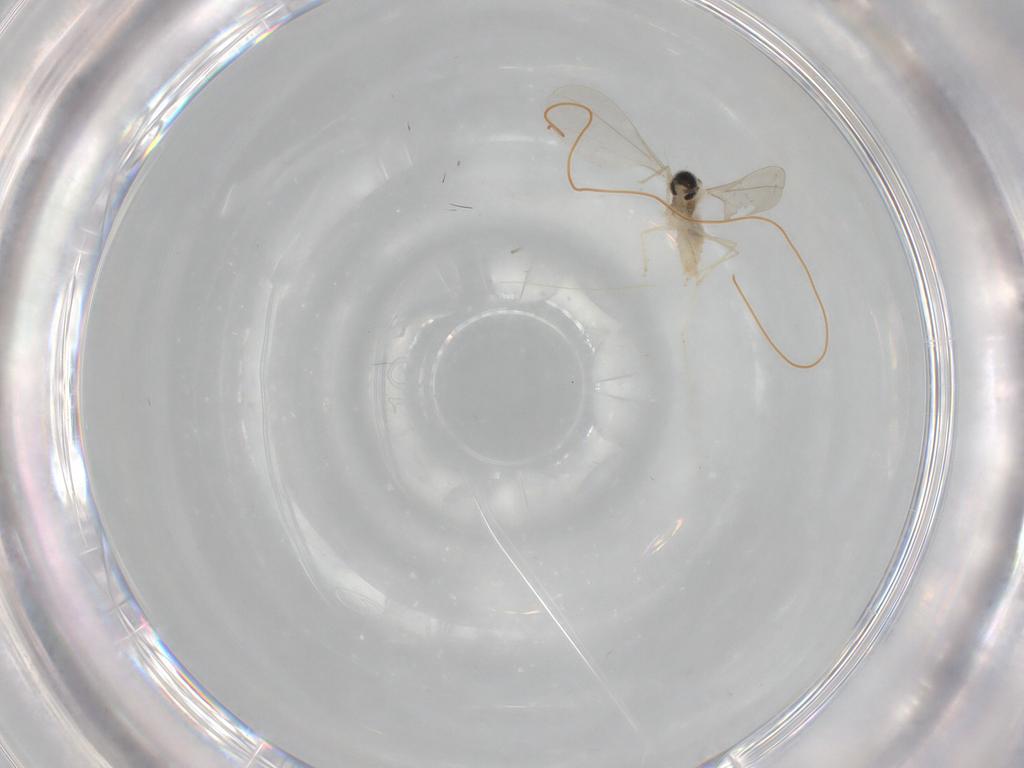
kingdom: Animalia
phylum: Arthropoda
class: Insecta
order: Diptera
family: Cecidomyiidae
